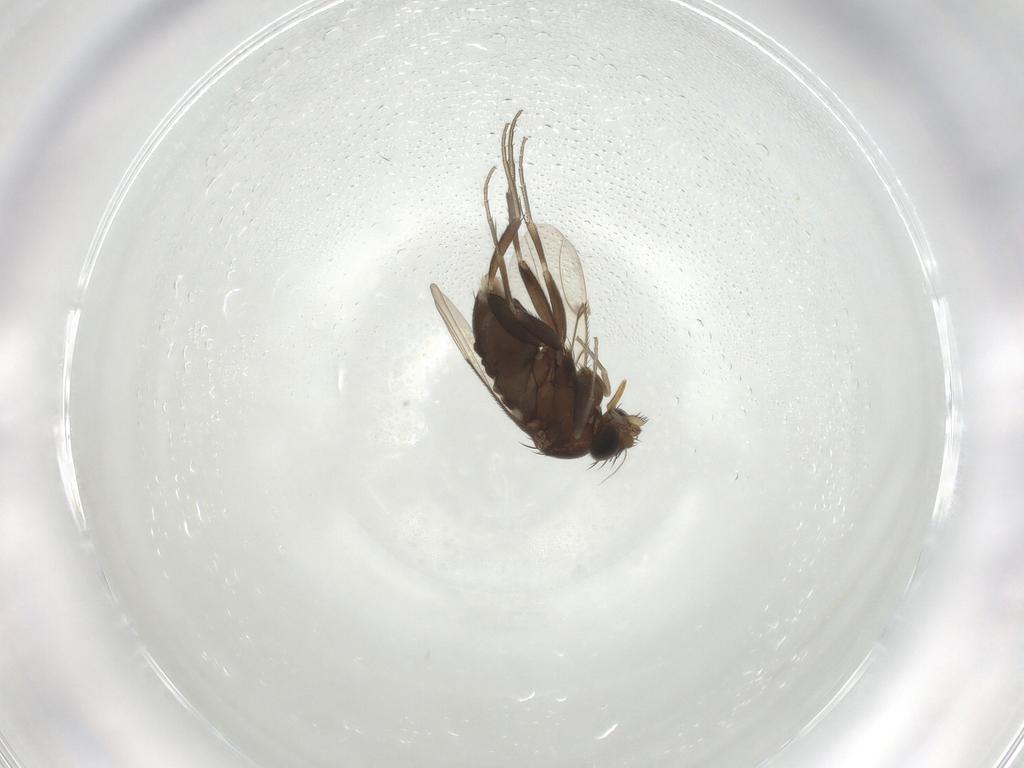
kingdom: Animalia
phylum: Arthropoda
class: Insecta
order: Diptera
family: Phoridae
